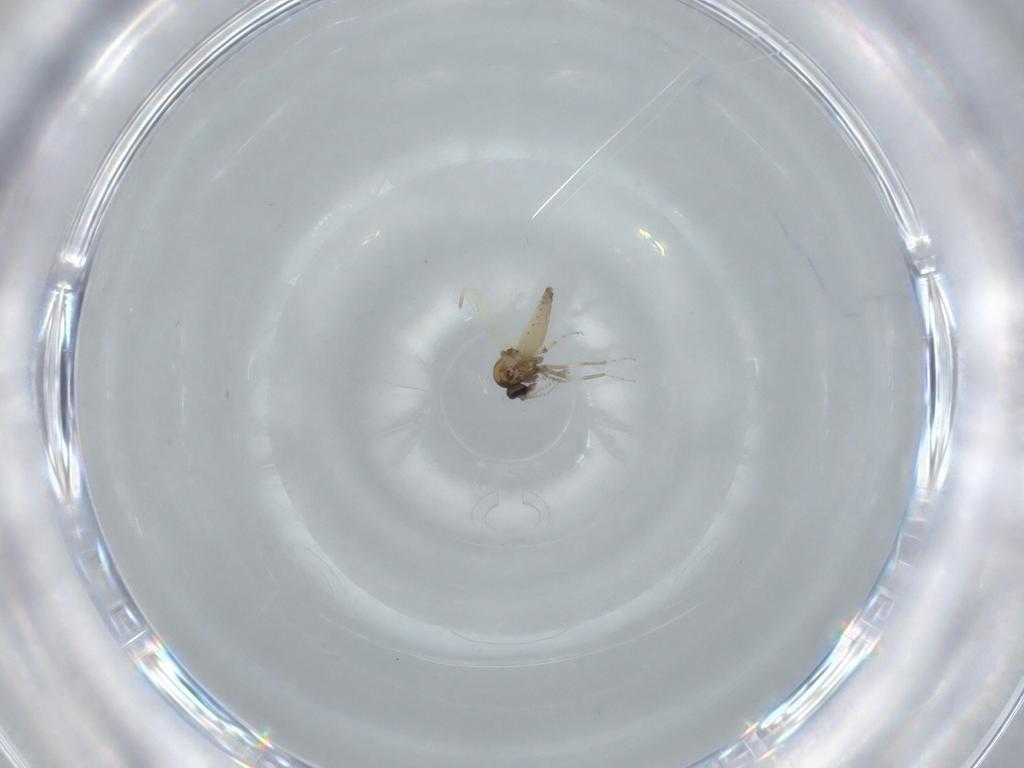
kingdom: Animalia
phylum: Arthropoda
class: Insecta
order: Diptera
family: Ceratopogonidae
